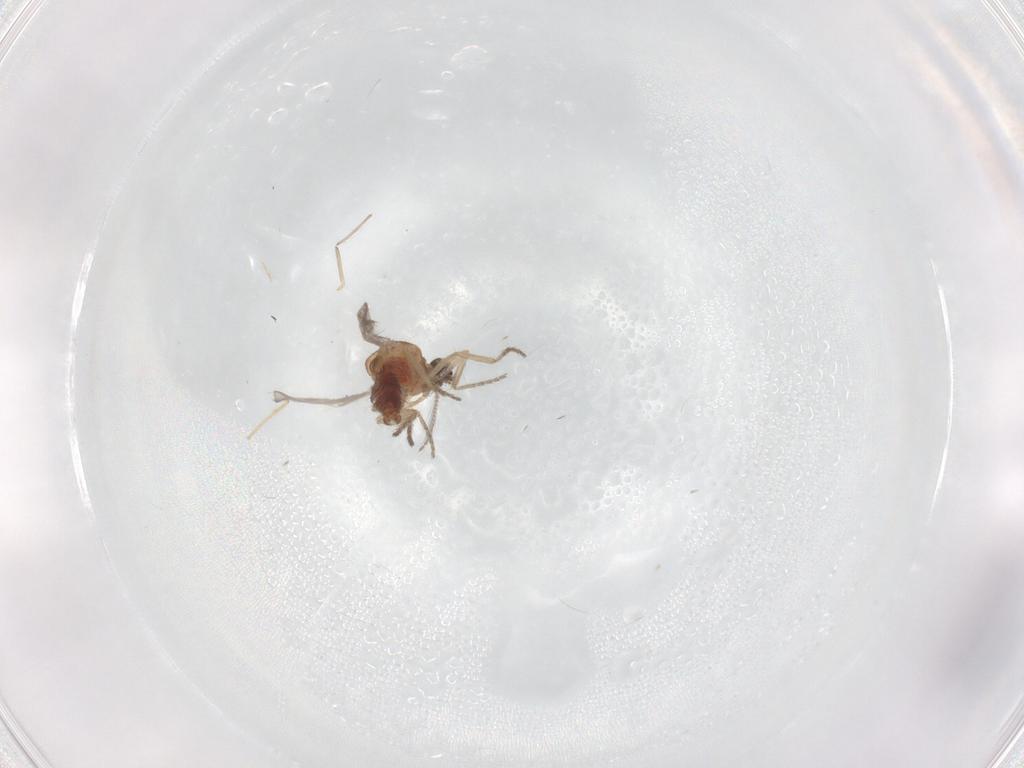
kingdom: Animalia
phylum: Arthropoda
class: Insecta
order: Diptera
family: Ceratopogonidae
